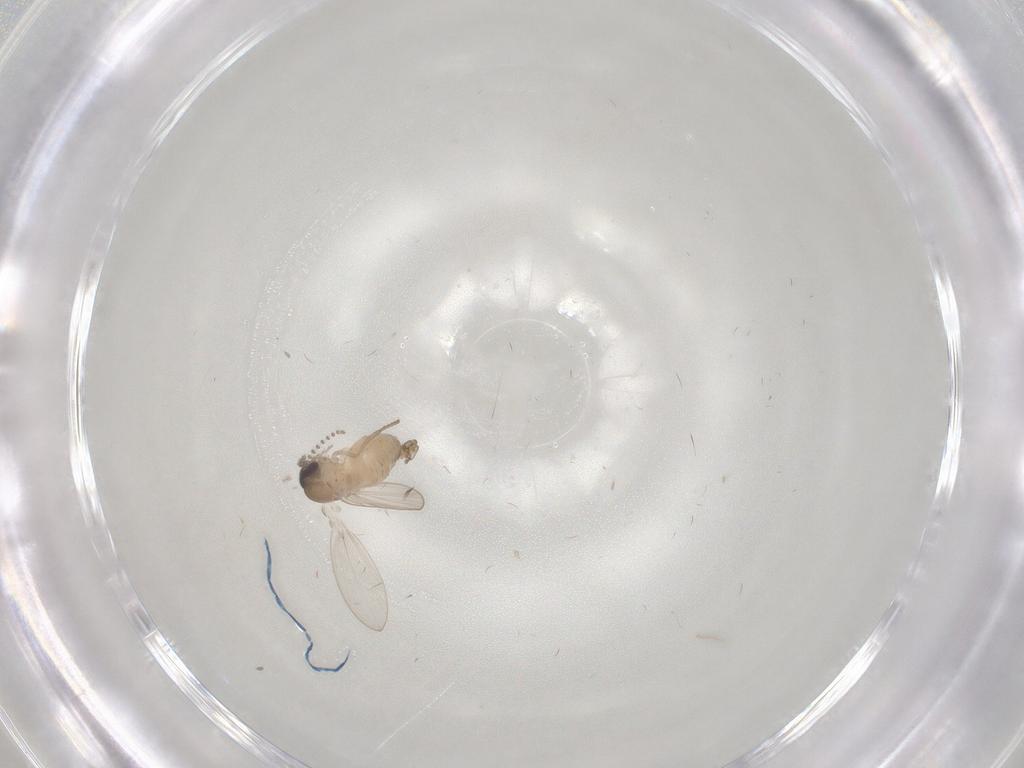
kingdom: Animalia
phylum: Arthropoda
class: Insecta
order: Diptera
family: Psychodidae
